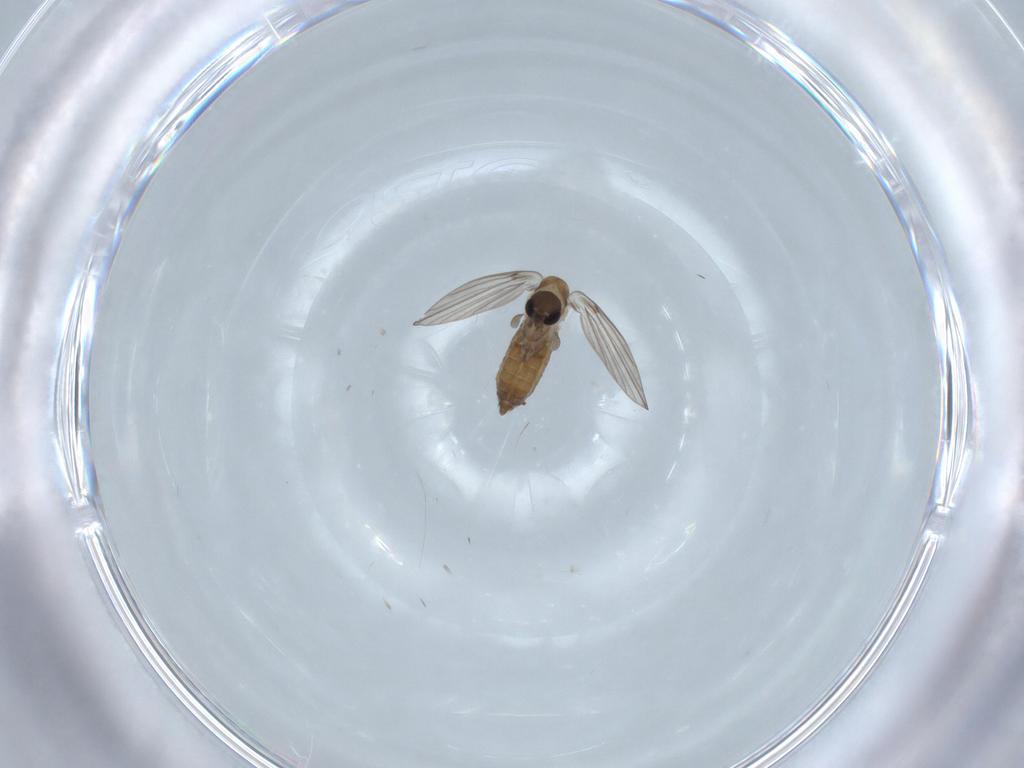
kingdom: Animalia
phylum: Arthropoda
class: Insecta
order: Diptera
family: Psychodidae
